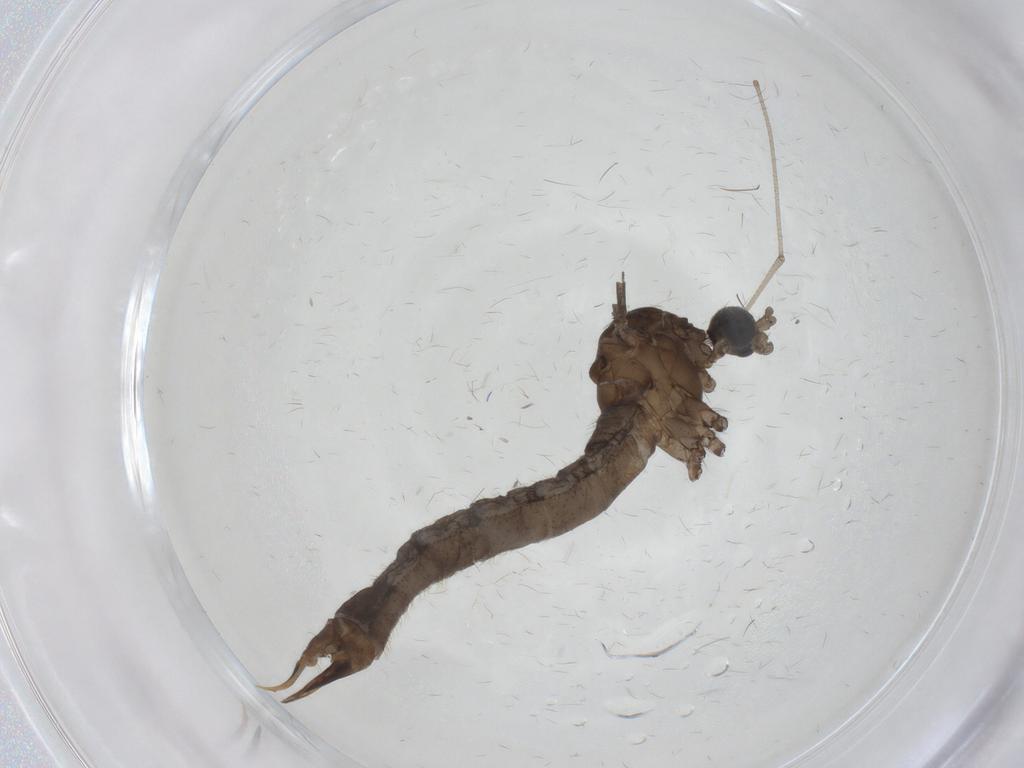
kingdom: Animalia
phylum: Arthropoda
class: Insecta
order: Diptera
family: Limoniidae
